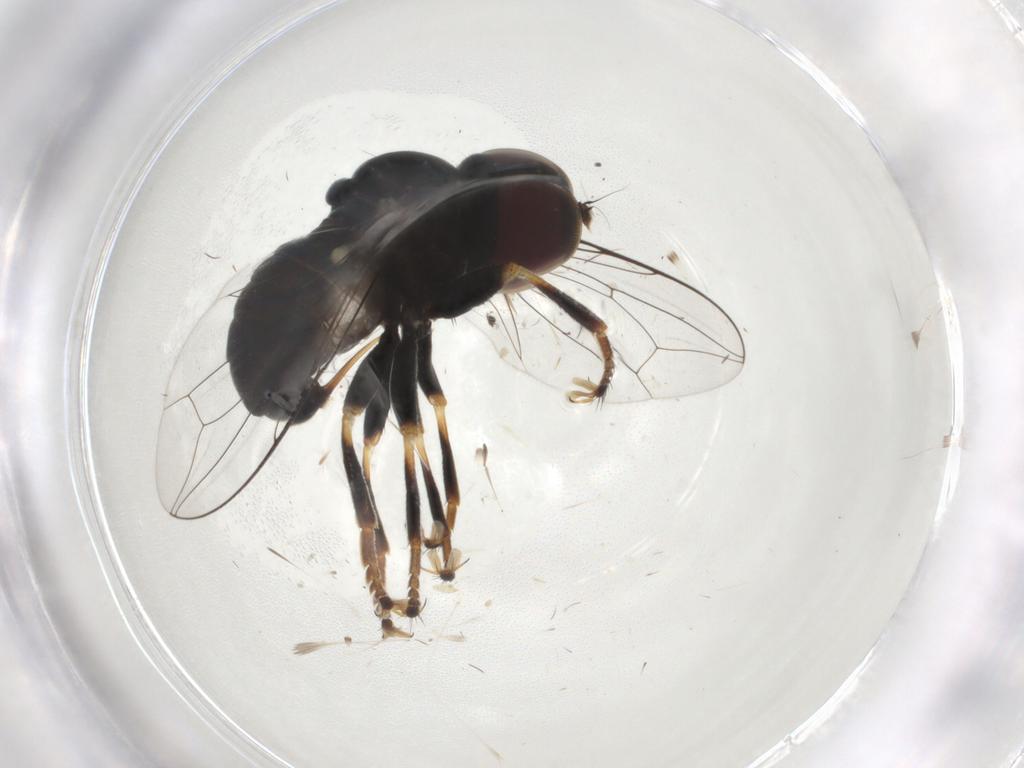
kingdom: Animalia
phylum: Arthropoda
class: Insecta
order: Diptera
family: Pipunculidae
